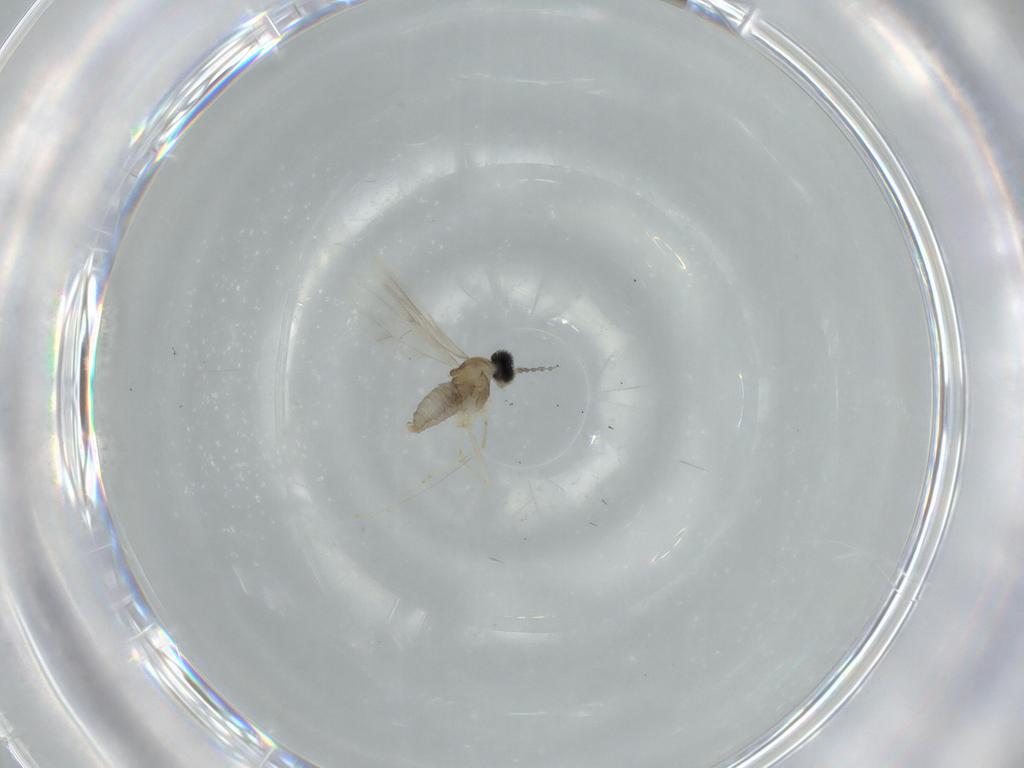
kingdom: Animalia
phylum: Arthropoda
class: Insecta
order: Diptera
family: Cecidomyiidae
